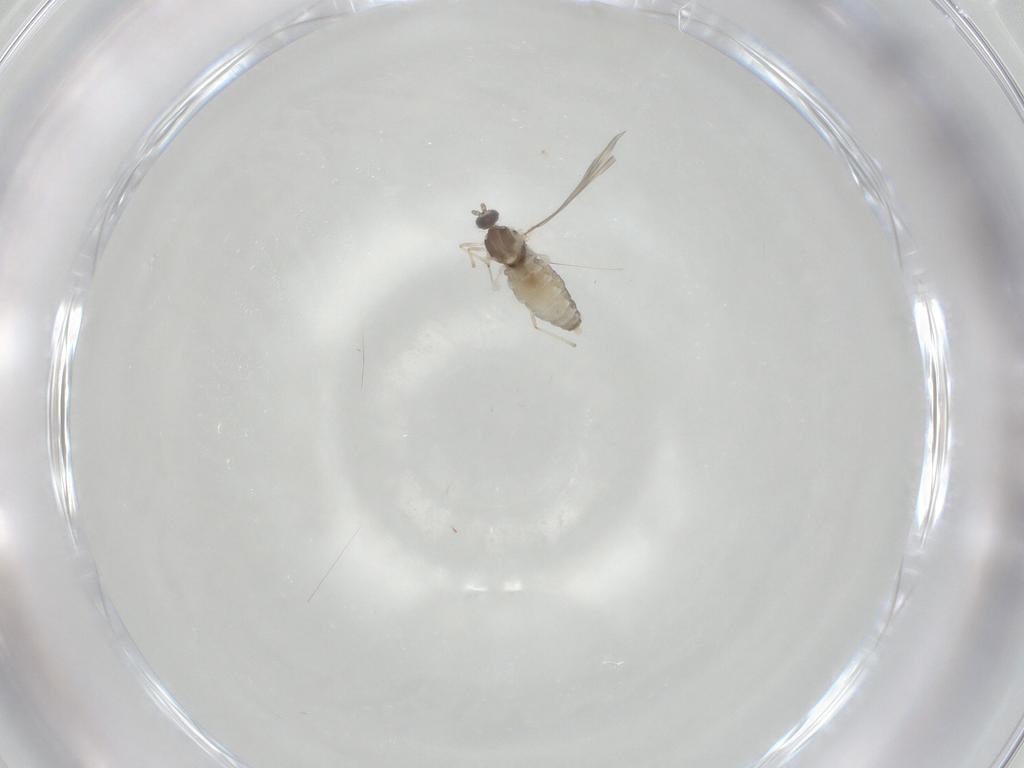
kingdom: Animalia
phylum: Arthropoda
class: Insecta
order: Diptera
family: Cecidomyiidae
